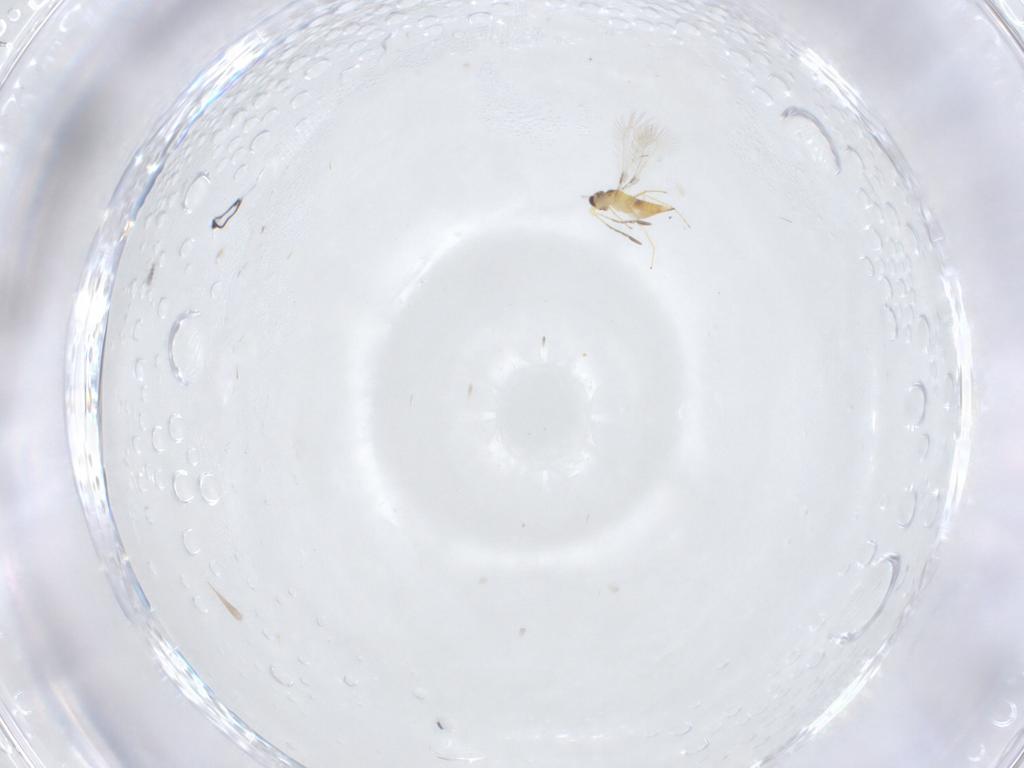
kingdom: Animalia
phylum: Arthropoda
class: Insecta
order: Hymenoptera
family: Mymaridae
